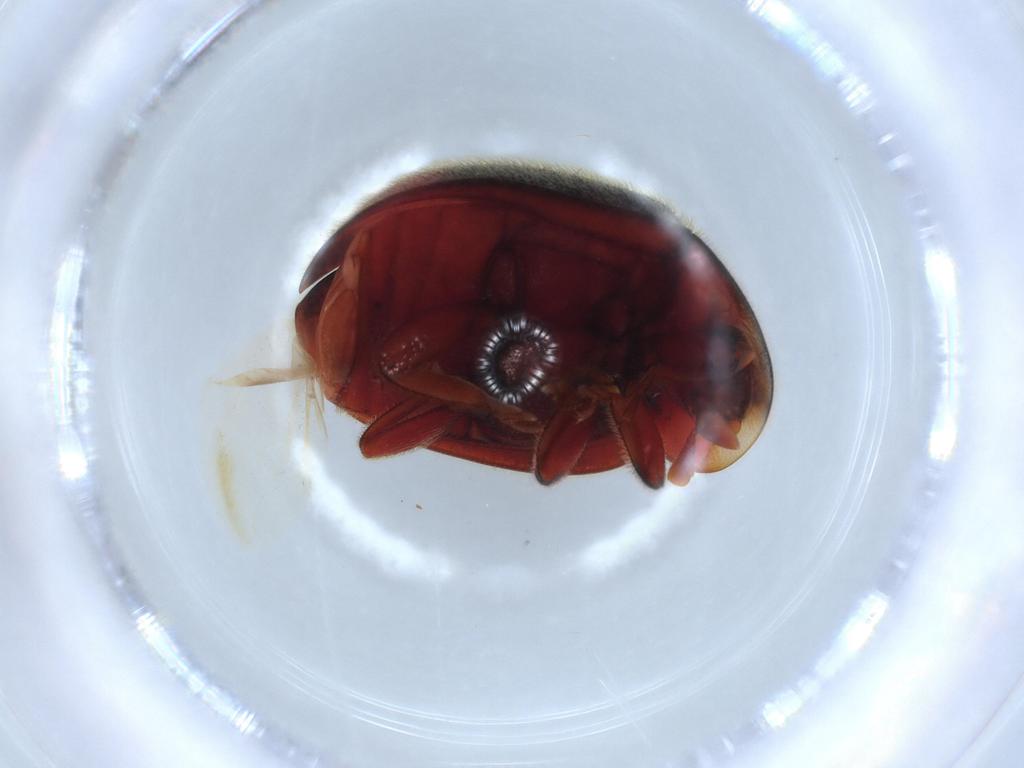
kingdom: Animalia
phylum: Arthropoda
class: Insecta
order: Coleoptera
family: Coccinellidae
